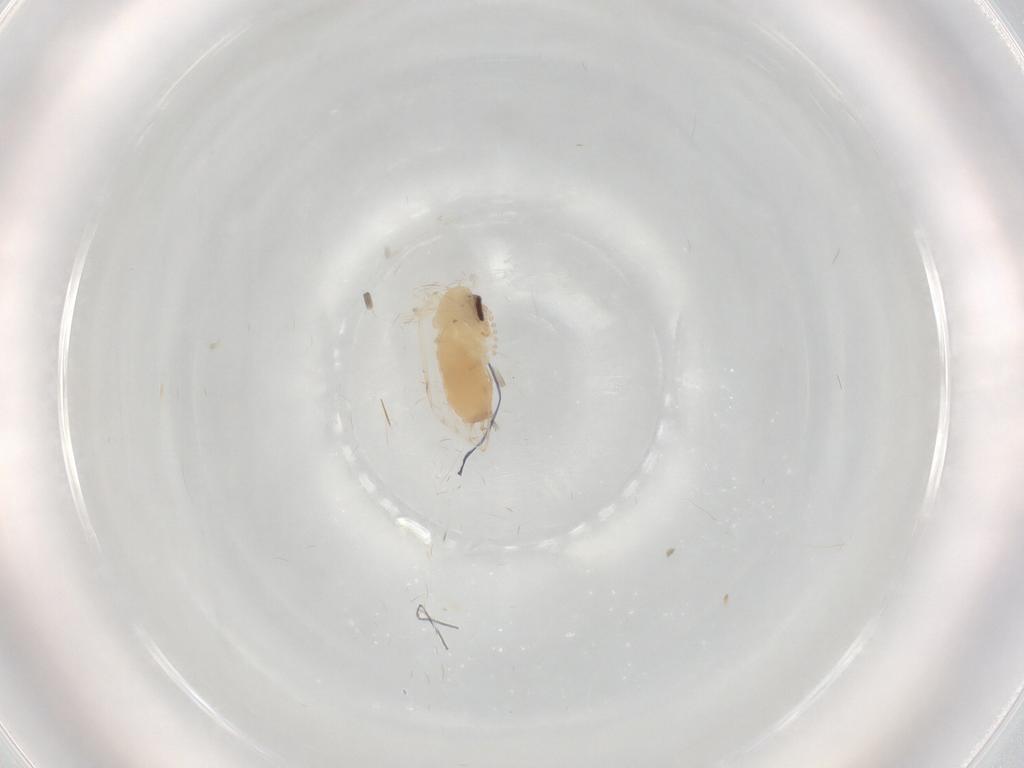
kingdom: Animalia
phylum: Arthropoda
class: Insecta
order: Diptera
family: Psychodidae
